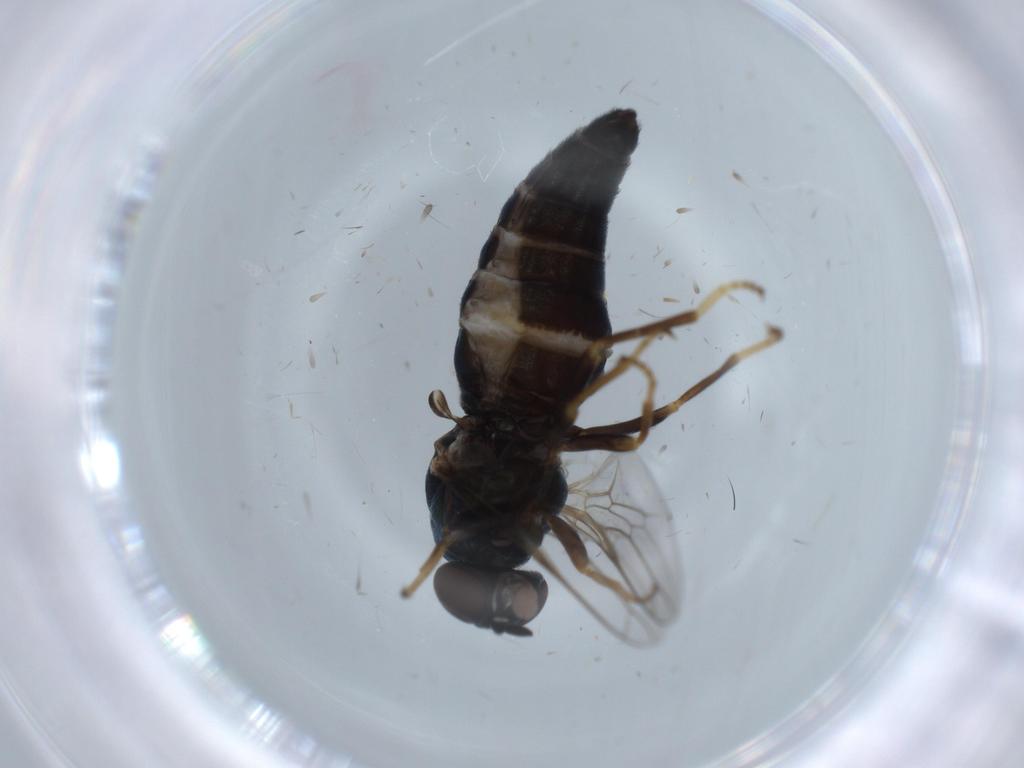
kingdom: Animalia
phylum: Arthropoda
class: Insecta
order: Diptera
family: Scenopinidae
